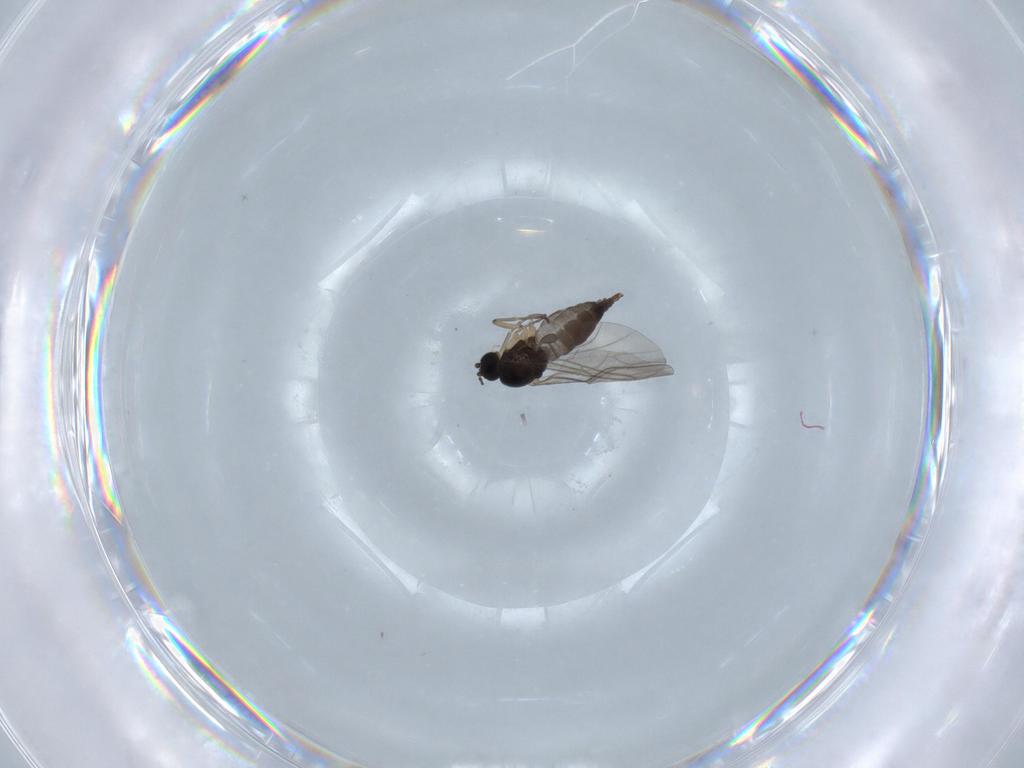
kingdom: Animalia
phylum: Arthropoda
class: Insecta
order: Diptera
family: Sciaridae
